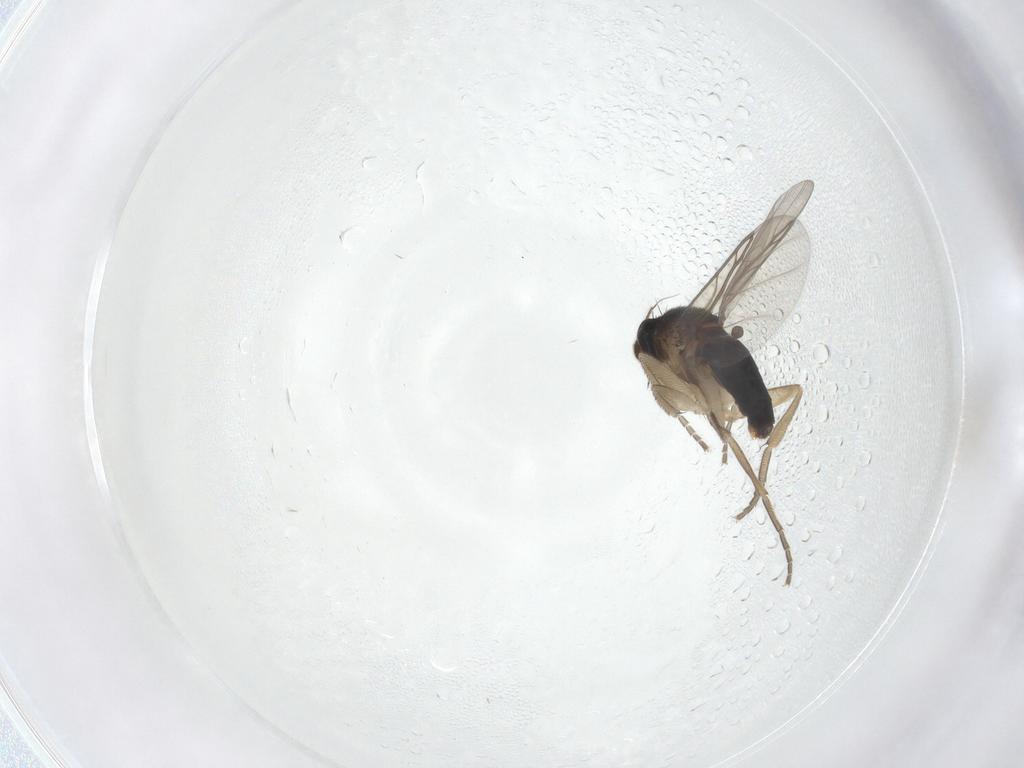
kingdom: Animalia
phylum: Arthropoda
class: Insecta
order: Diptera
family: Phoridae
